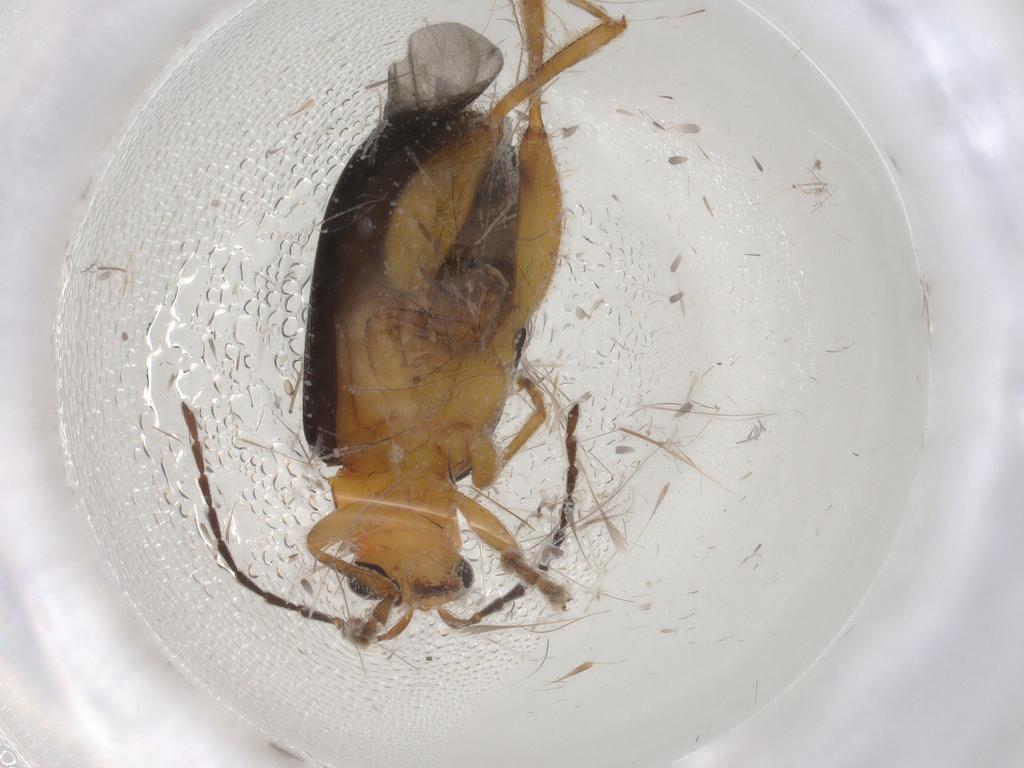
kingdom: Animalia
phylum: Arthropoda
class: Insecta
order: Coleoptera
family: Chrysomelidae
